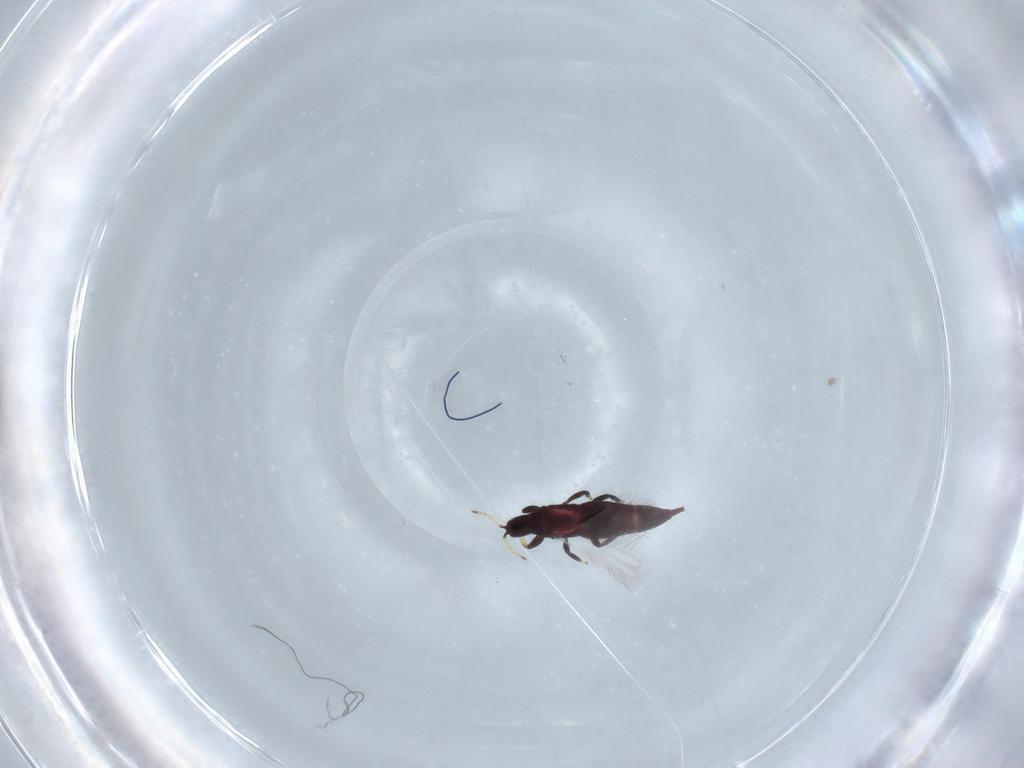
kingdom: Animalia
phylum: Arthropoda
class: Insecta
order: Thysanoptera
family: Phlaeothripidae
